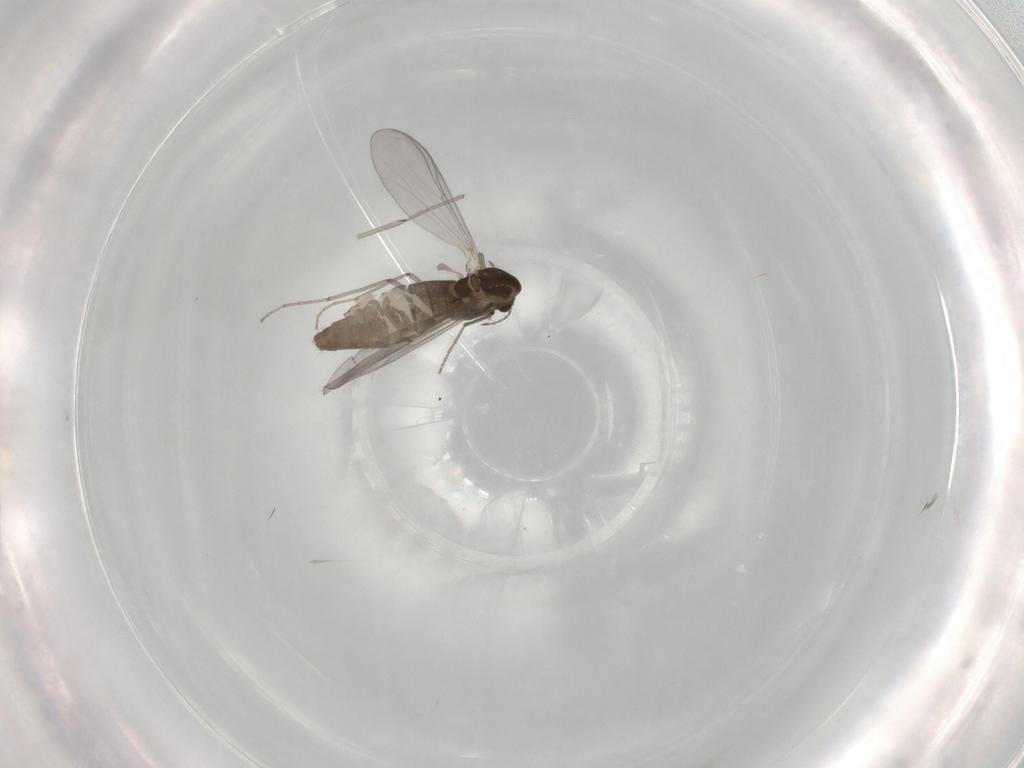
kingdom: Animalia
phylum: Arthropoda
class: Insecta
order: Diptera
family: Chironomidae
